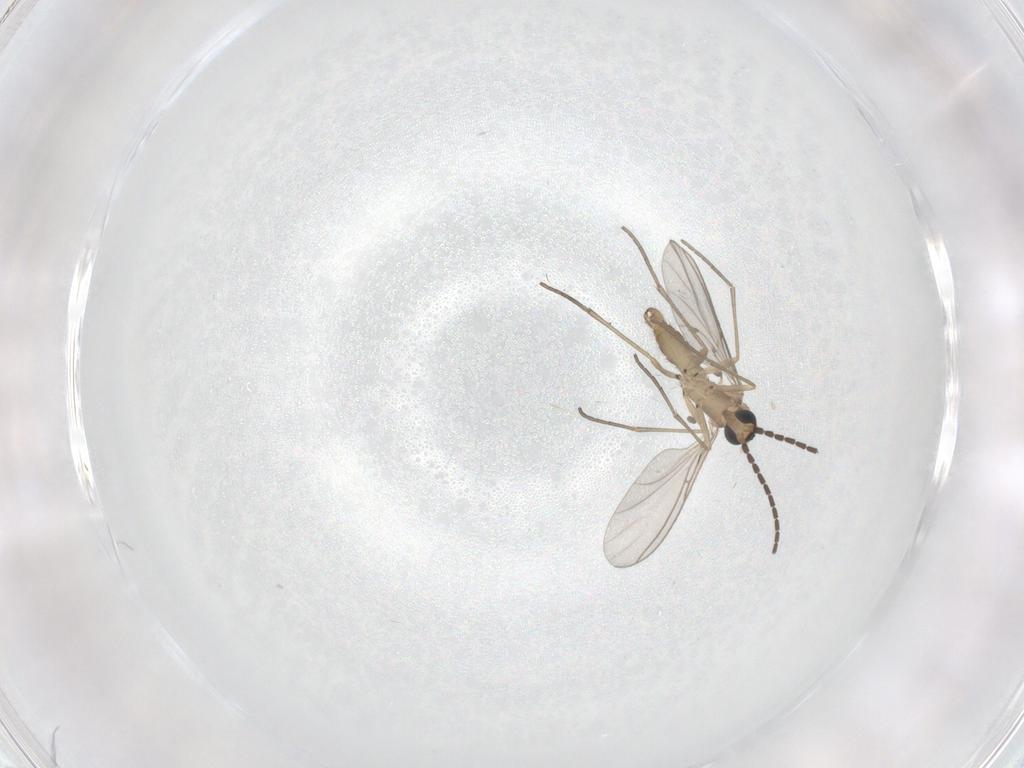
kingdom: Animalia
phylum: Arthropoda
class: Insecta
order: Diptera
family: Sciaridae
